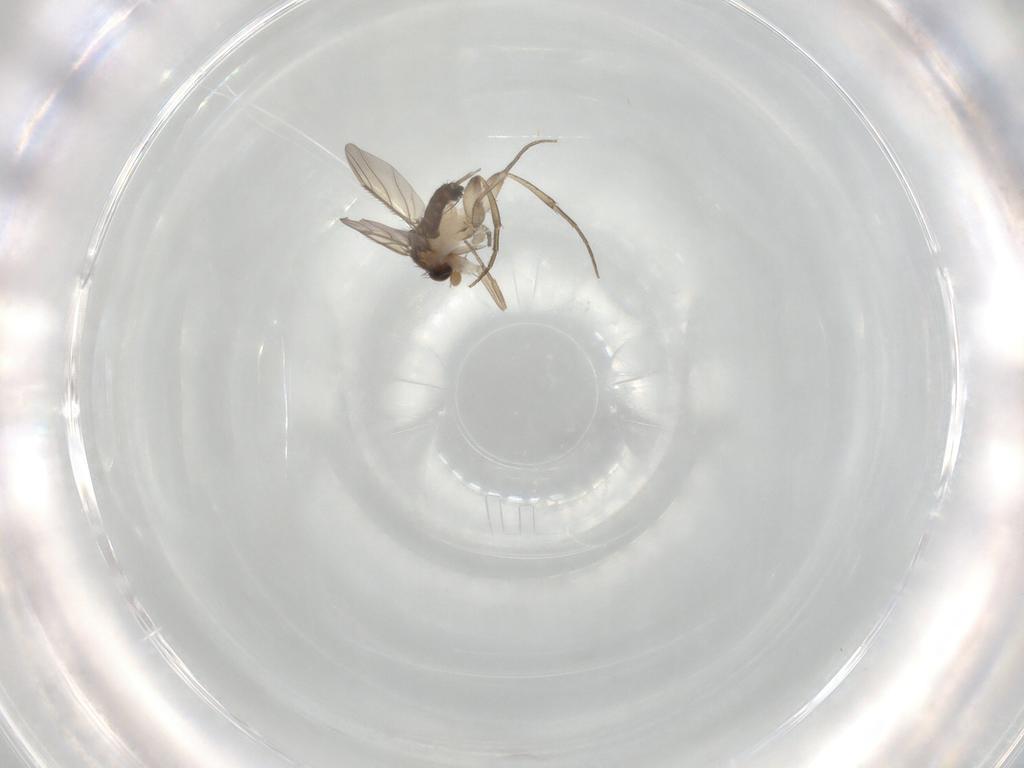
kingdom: Animalia
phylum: Arthropoda
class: Insecta
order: Diptera
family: Phoridae
